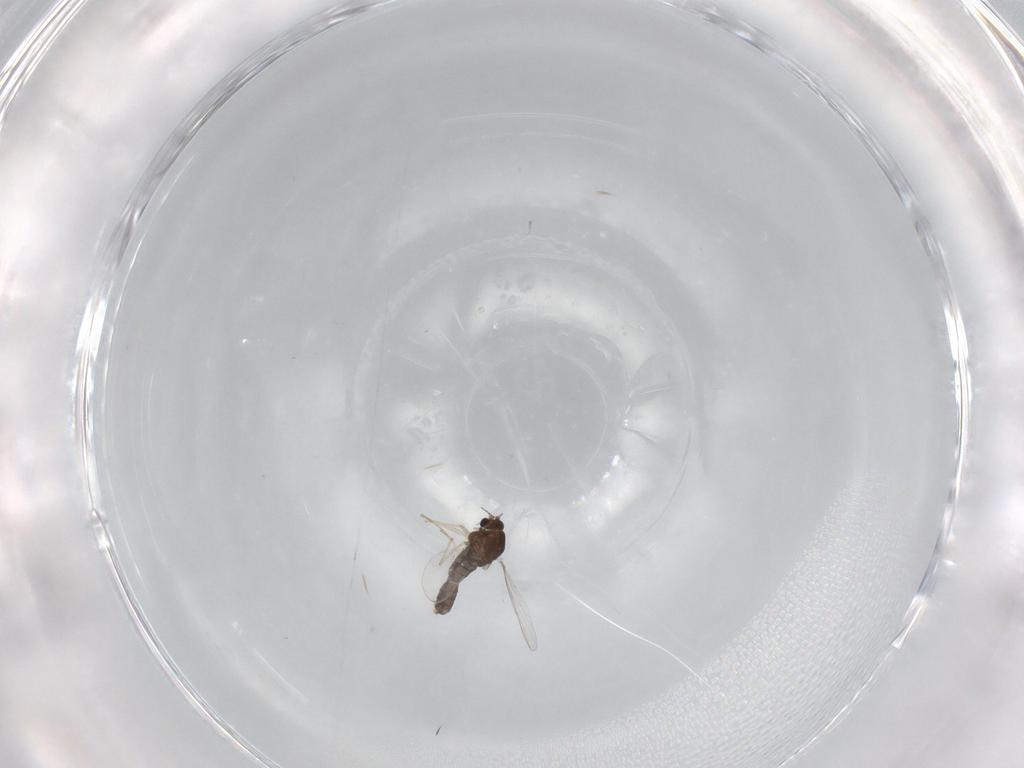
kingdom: Animalia
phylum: Arthropoda
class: Insecta
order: Diptera
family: Chironomidae
